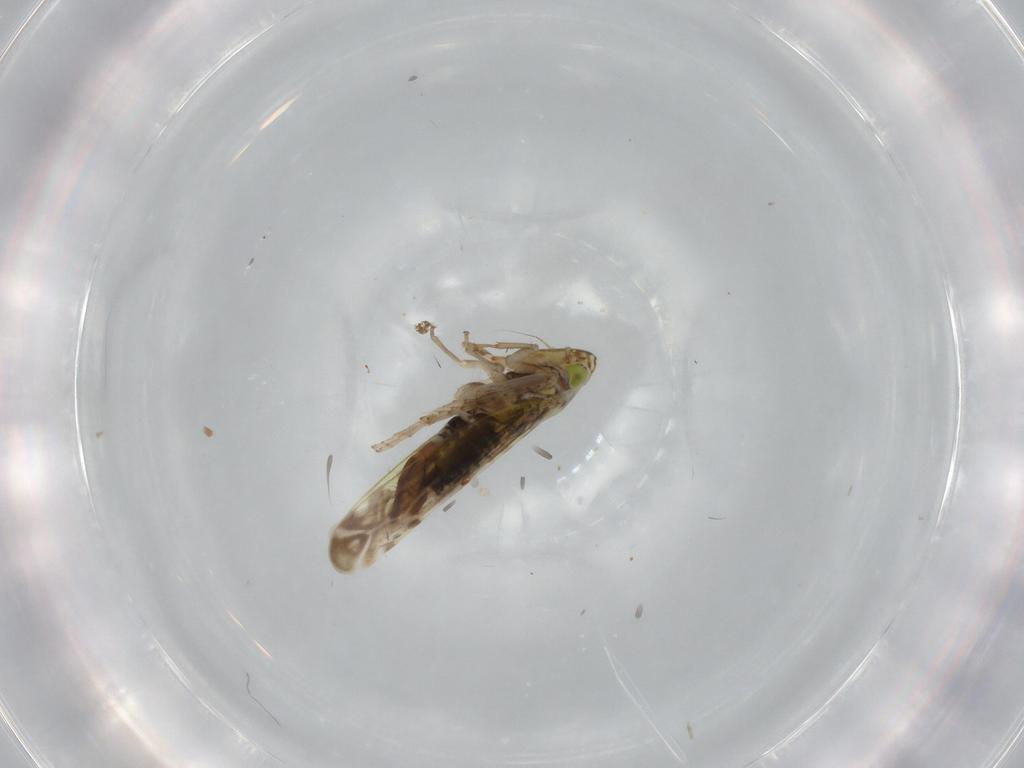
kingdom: Animalia
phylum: Arthropoda
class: Insecta
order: Hemiptera
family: Cicadellidae
